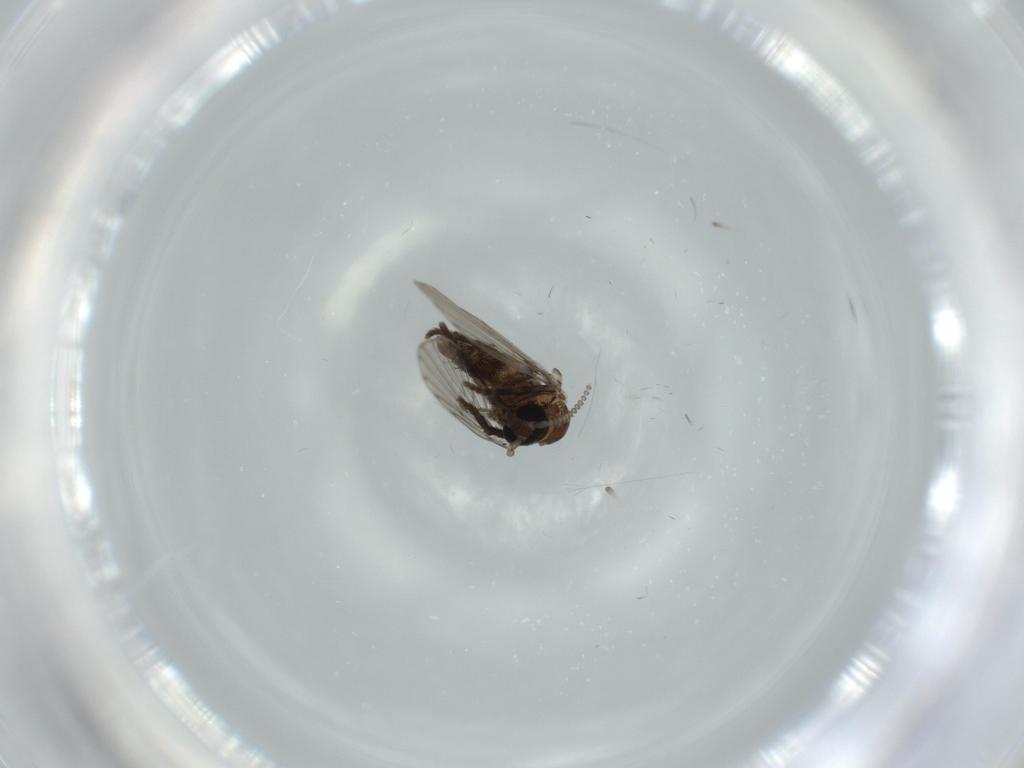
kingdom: Animalia
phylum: Arthropoda
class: Insecta
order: Diptera
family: Psychodidae
